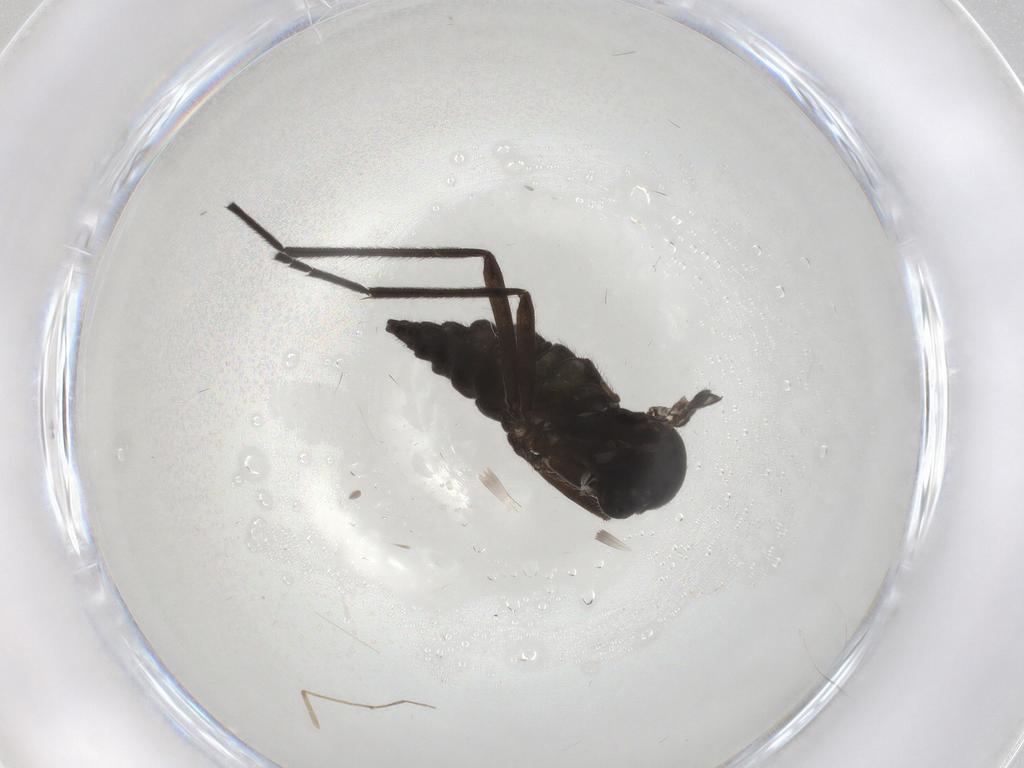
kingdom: Animalia
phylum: Arthropoda
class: Insecta
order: Diptera
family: Sciaridae
